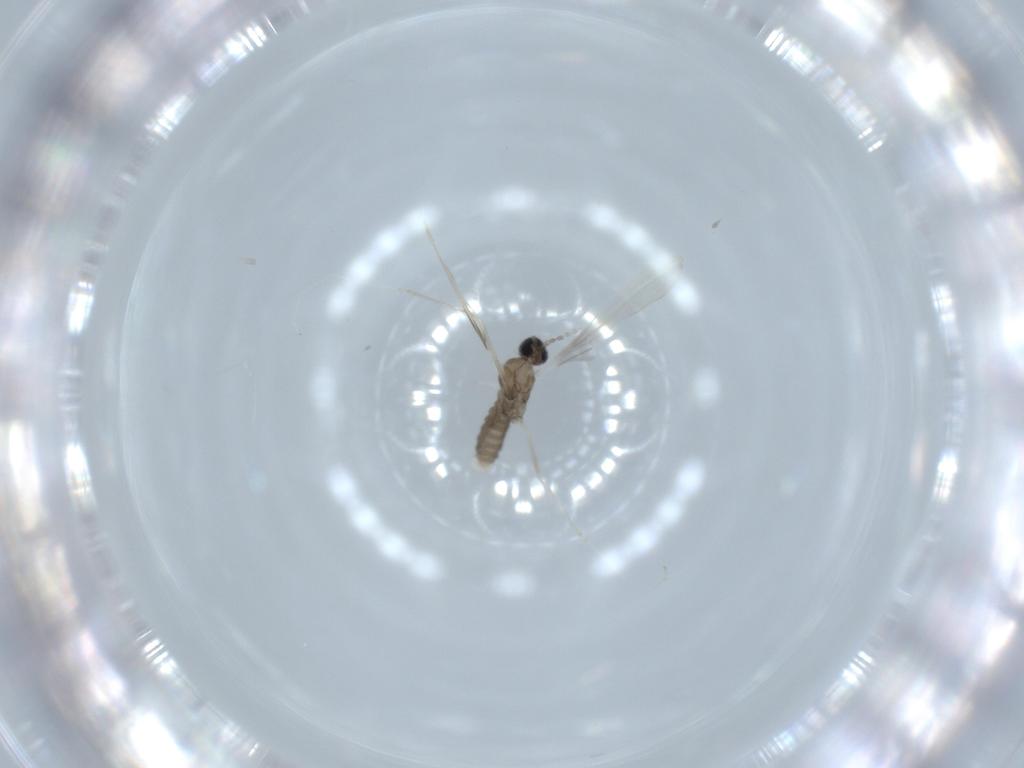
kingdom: Animalia
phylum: Arthropoda
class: Insecta
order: Diptera
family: Cecidomyiidae
